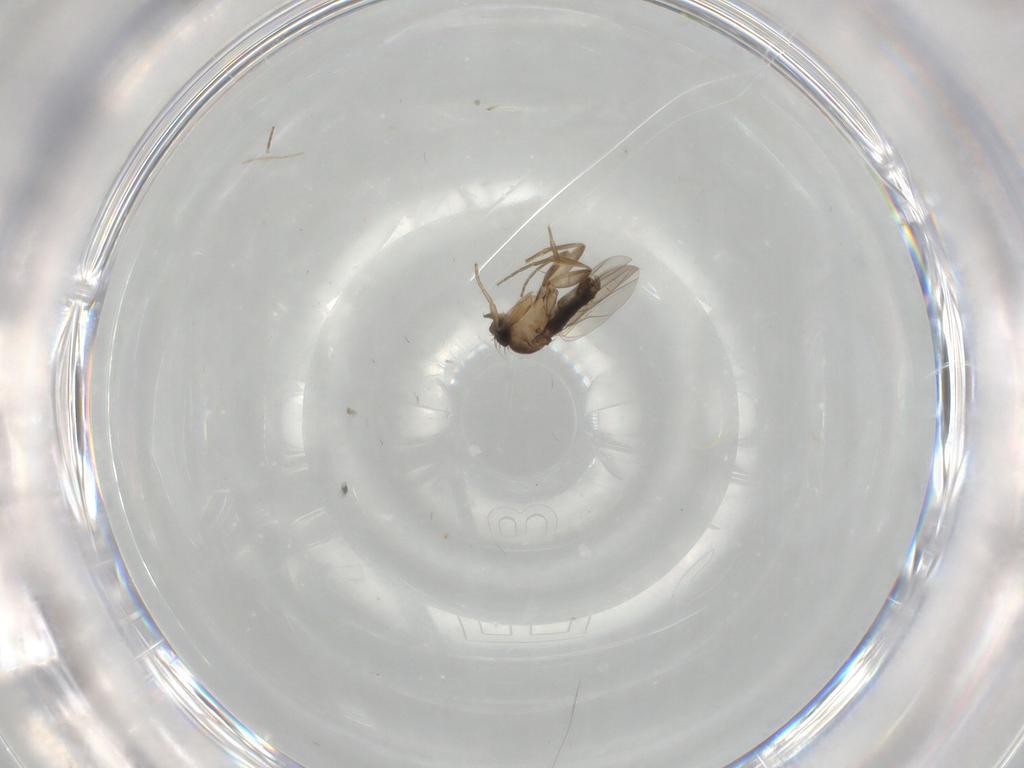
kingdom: Animalia
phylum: Arthropoda
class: Insecta
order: Diptera
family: Phoridae
